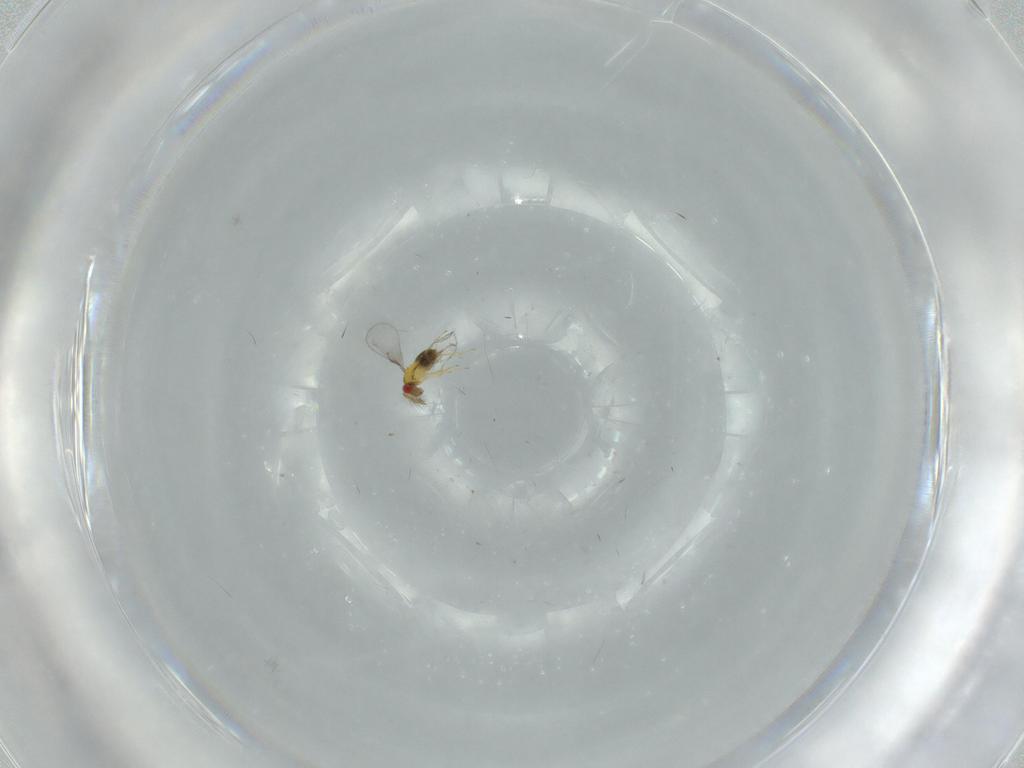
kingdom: Animalia
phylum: Arthropoda
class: Insecta
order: Hymenoptera
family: Trichogrammatidae
